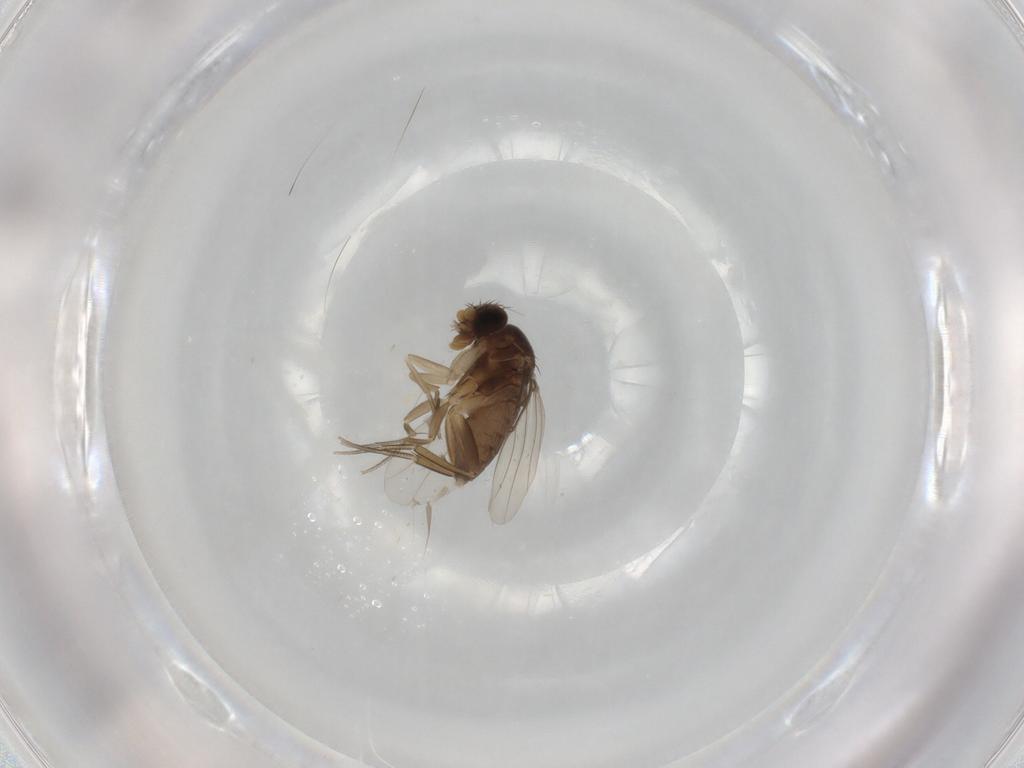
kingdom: Animalia
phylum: Arthropoda
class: Insecta
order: Diptera
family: Phoridae
